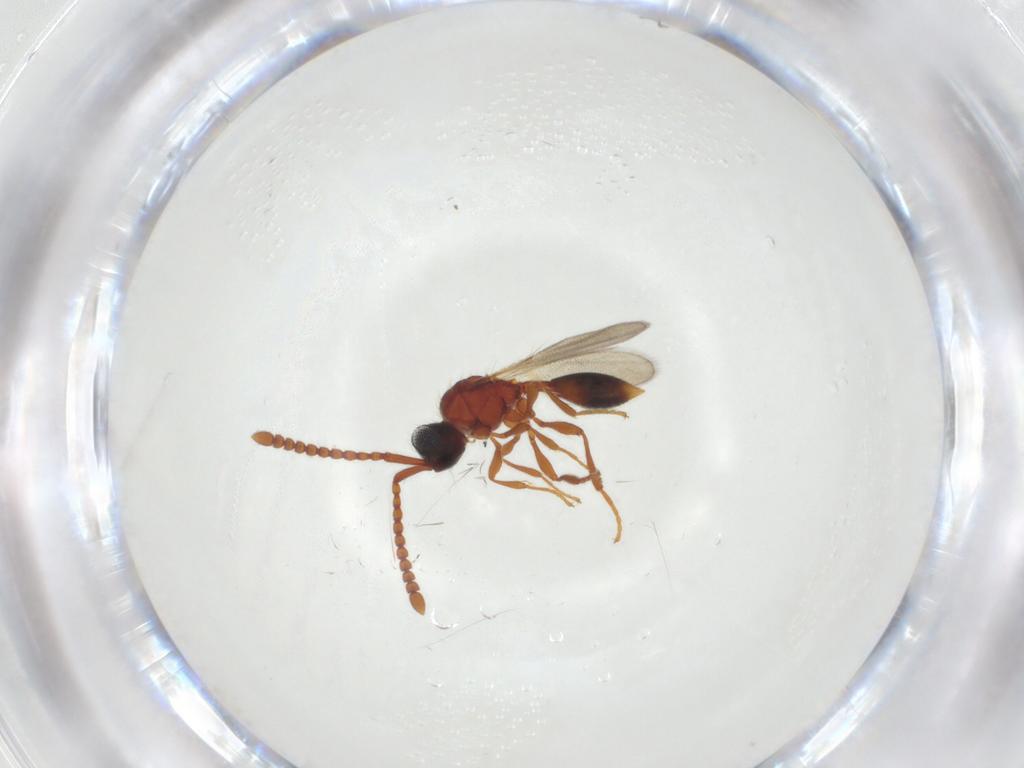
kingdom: Animalia
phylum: Arthropoda
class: Insecta
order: Hymenoptera
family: Diapriidae
